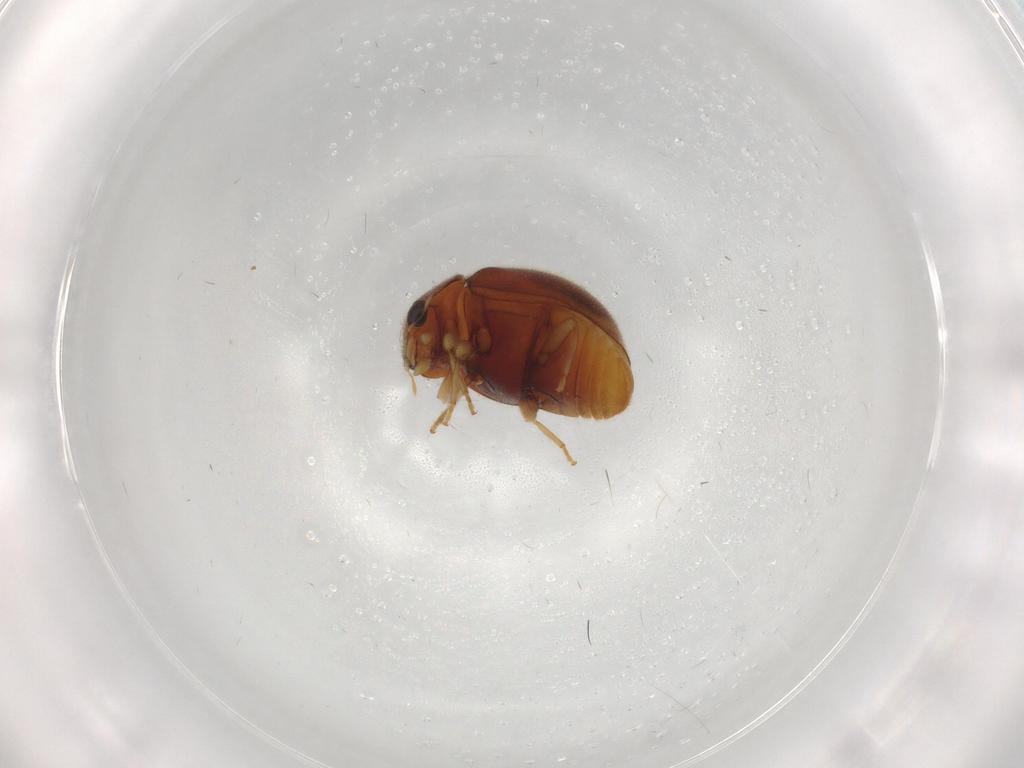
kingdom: Animalia
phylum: Arthropoda
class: Insecta
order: Coleoptera
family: Coccinellidae
